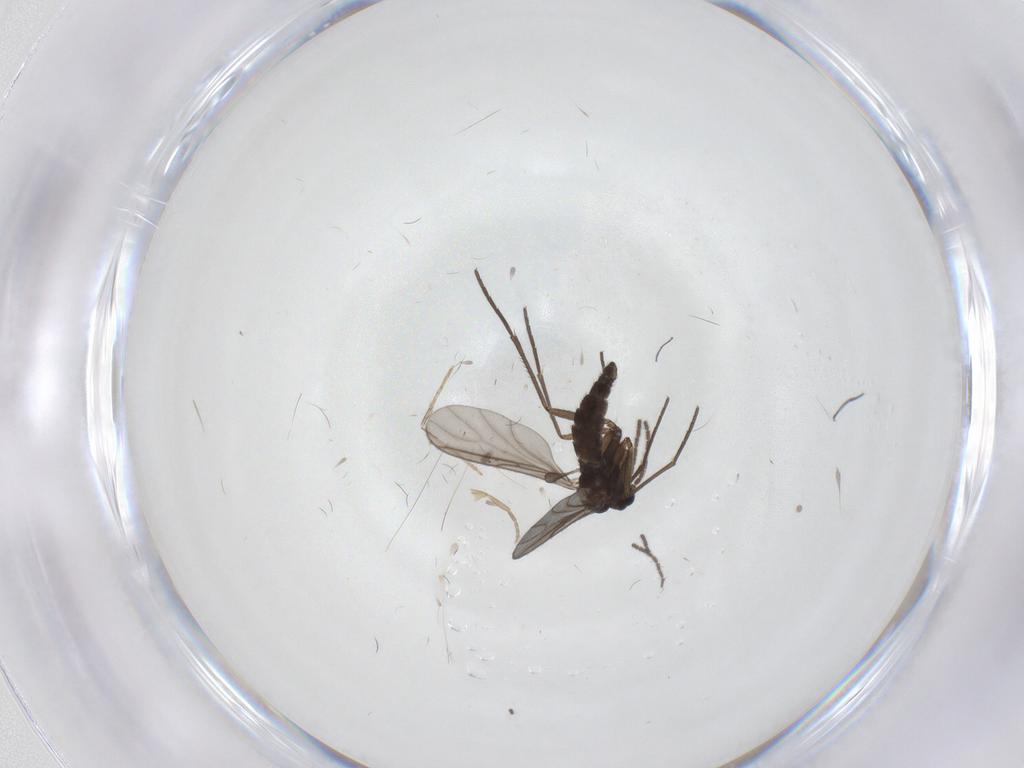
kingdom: Animalia
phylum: Arthropoda
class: Insecta
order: Diptera
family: Sciaridae
